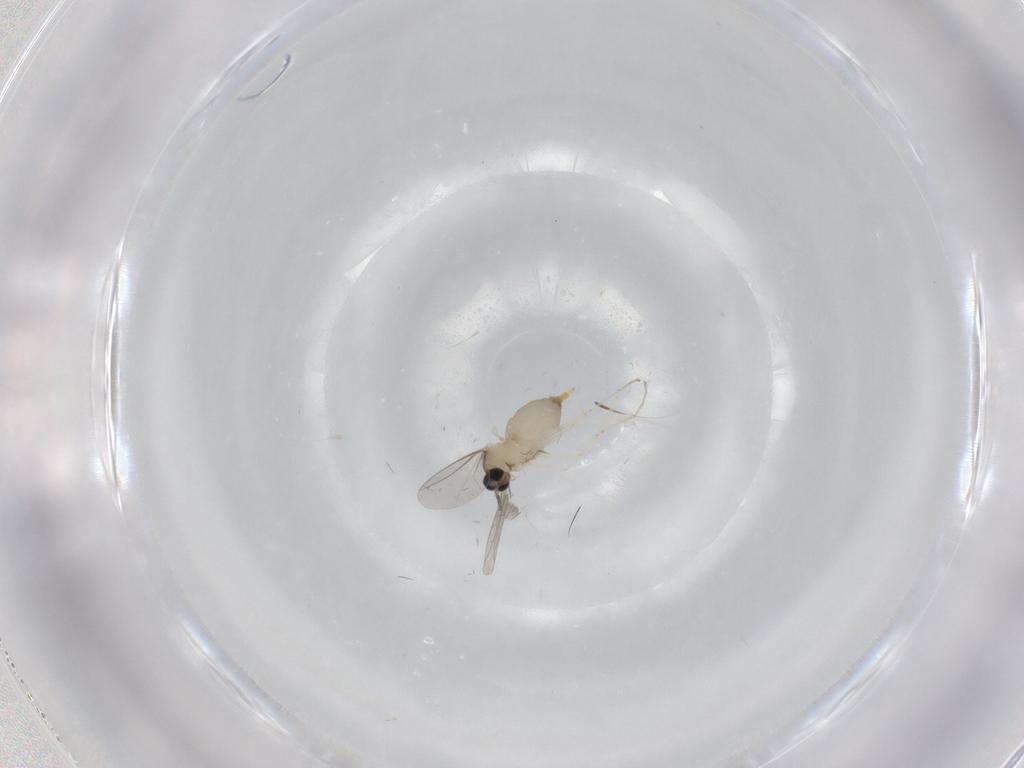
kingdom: Animalia
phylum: Arthropoda
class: Insecta
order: Diptera
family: Cecidomyiidae
